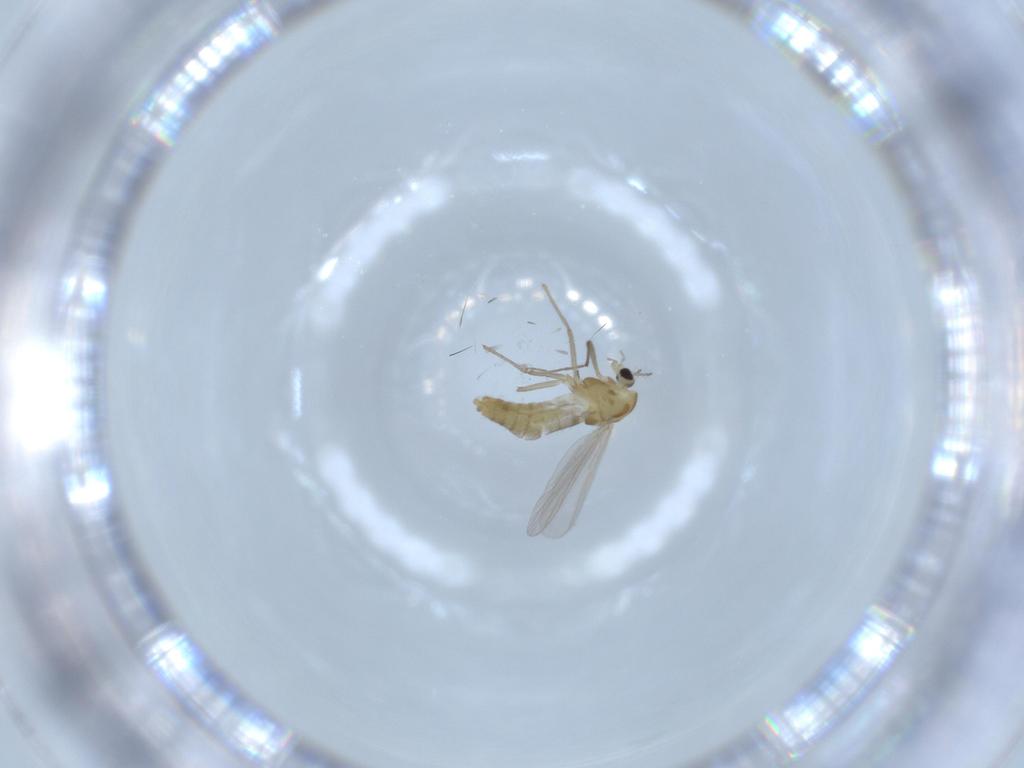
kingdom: Animalia
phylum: Arthropoda
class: Insecta
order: Diptera
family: Chironomidae
